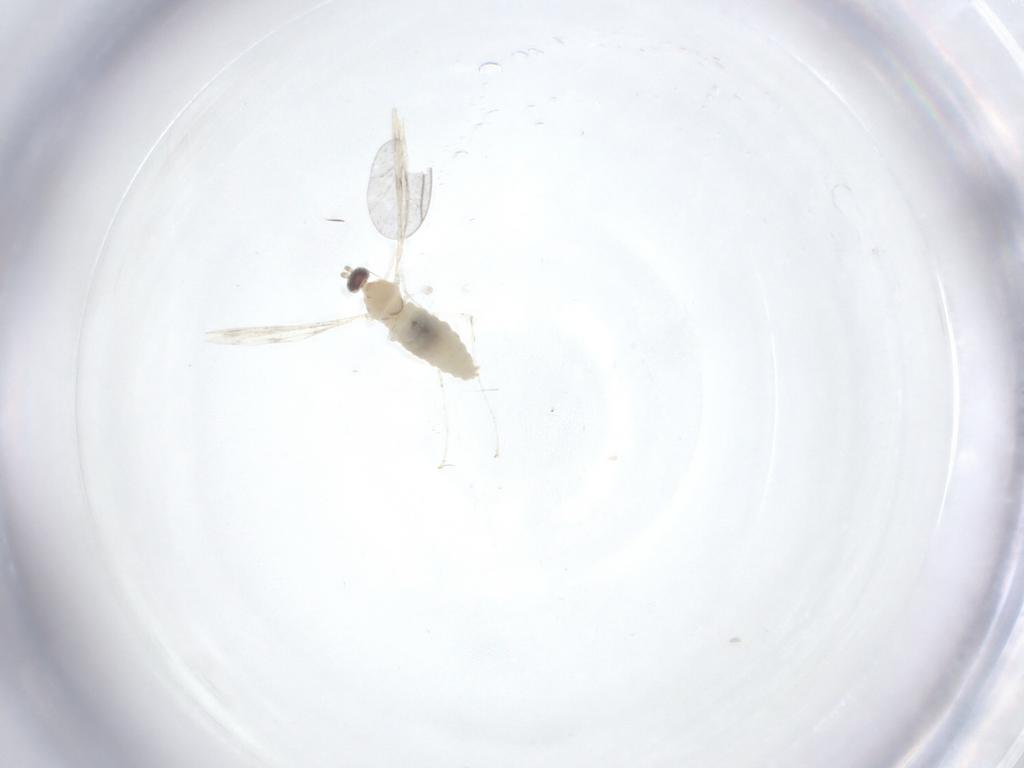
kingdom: Animalia
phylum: Arthropoda
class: Insecta
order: Diptera
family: Cecidomyiidae
